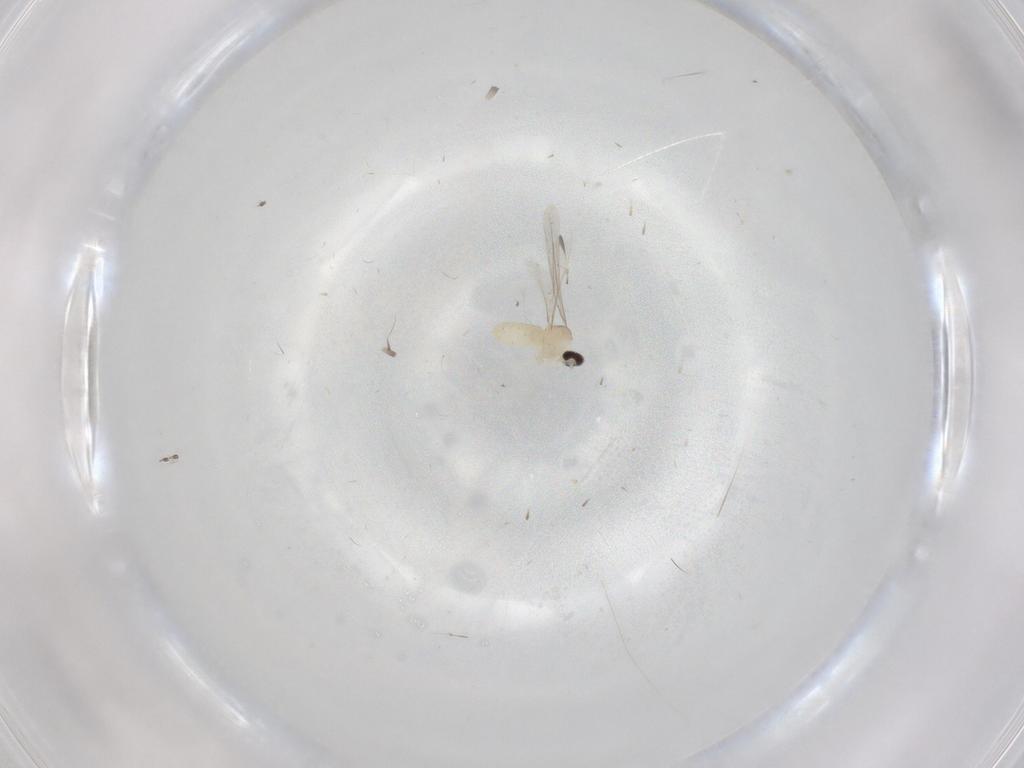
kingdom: Animalia
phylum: Arthropoda
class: Insecta
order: Diptera
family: Cecidomyiidae
